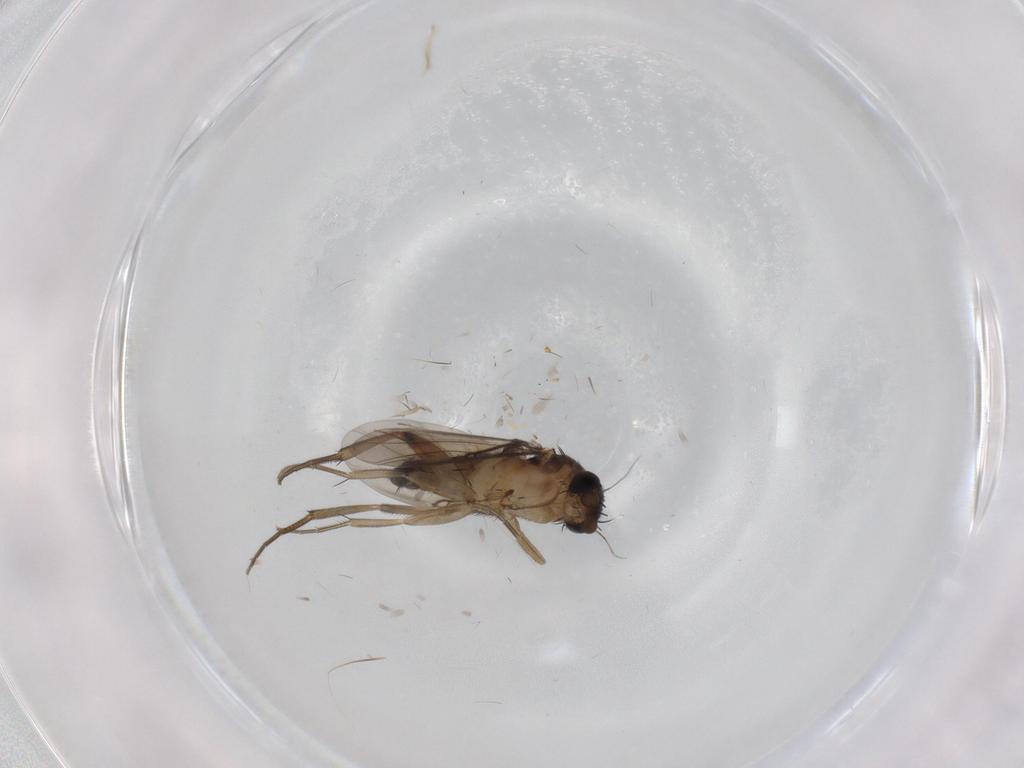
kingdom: Animalia
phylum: Arthropoda
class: Insecta
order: Diptera
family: Phoridae
